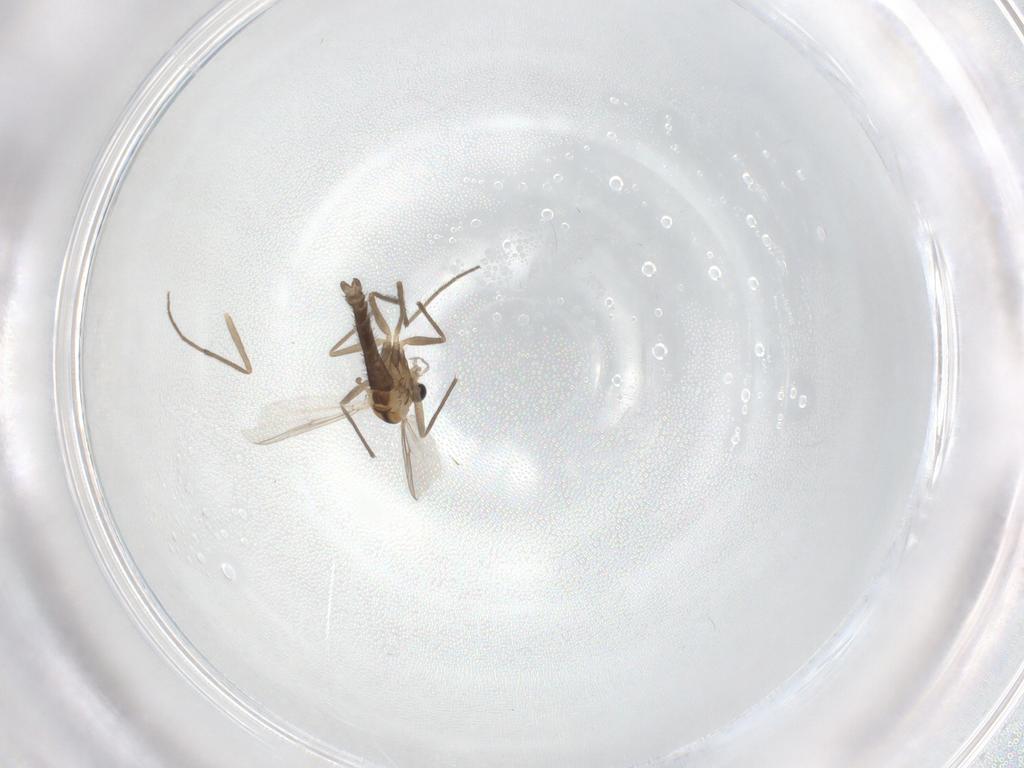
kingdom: Animalia
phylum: Arthropoda
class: Insecta
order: Diptera
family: Chironomidae
